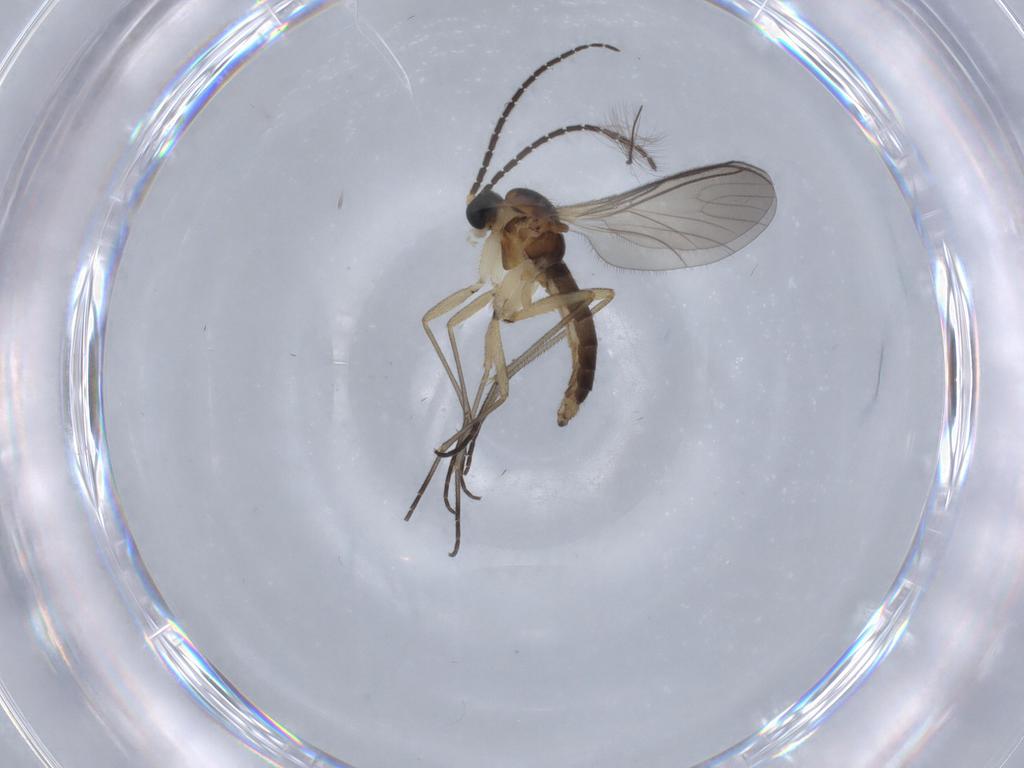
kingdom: Animalia
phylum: Arthropoda
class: Insecta
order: Diptera
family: Sciaridae
